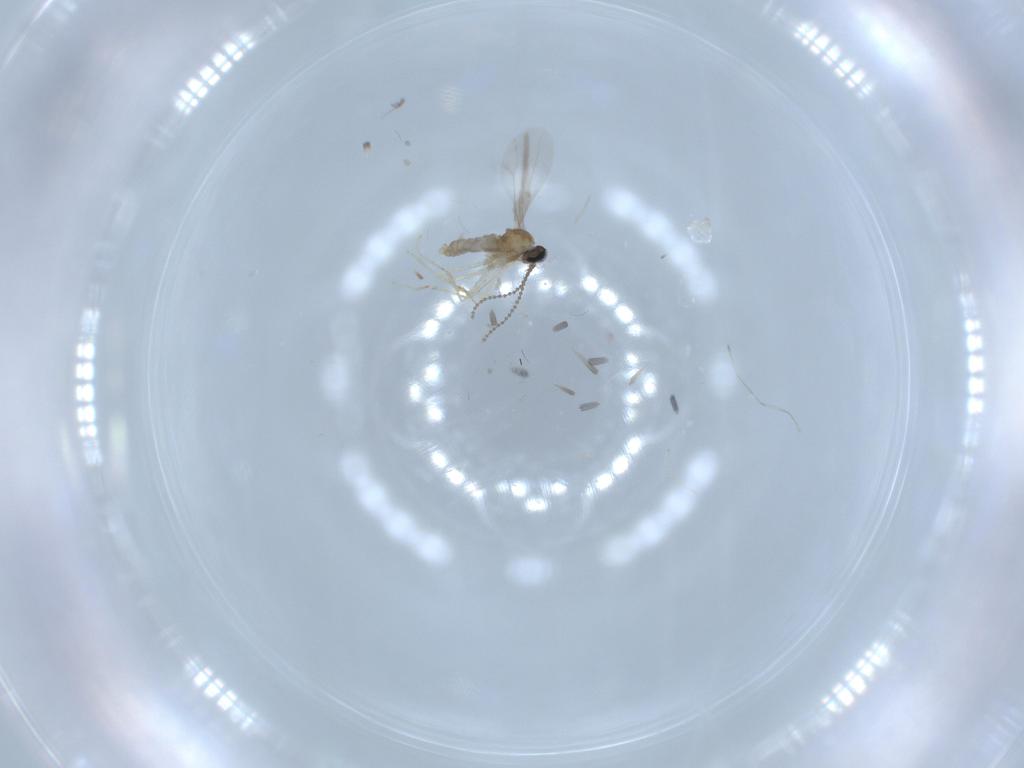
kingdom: Animalia
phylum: Arthropoda
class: Insecta
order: Diptera
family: Cecidomyiidae
